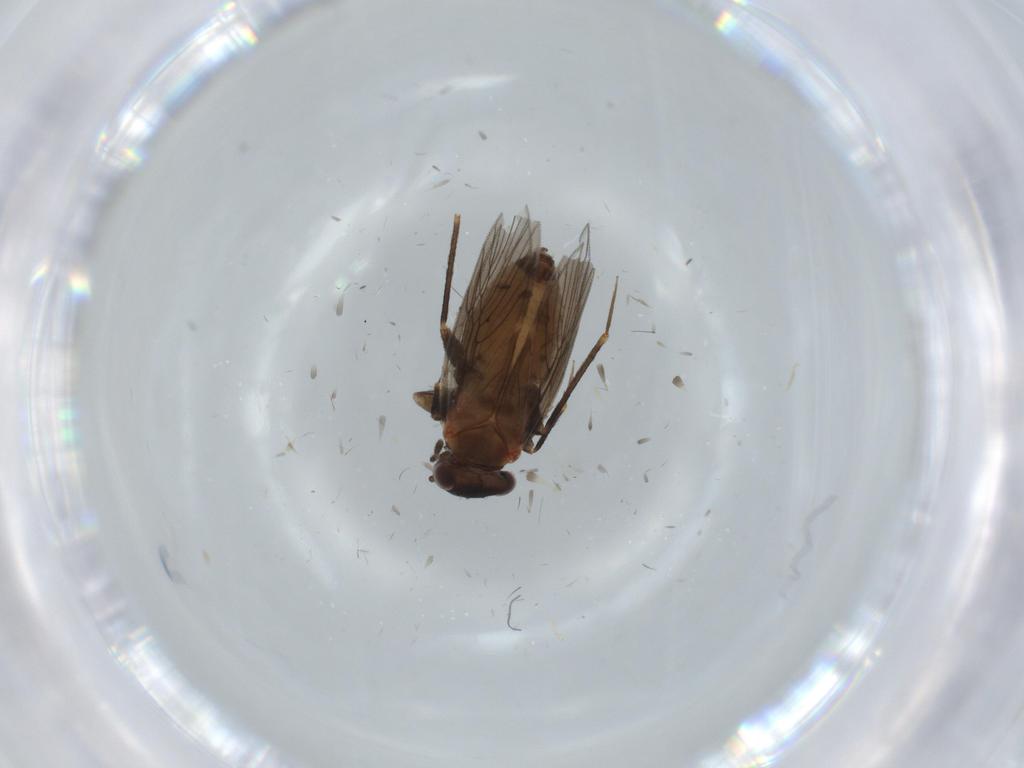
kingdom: Animalia
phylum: Arthropoda
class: Insecta
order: Psocodea
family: Lepidopsocidae
